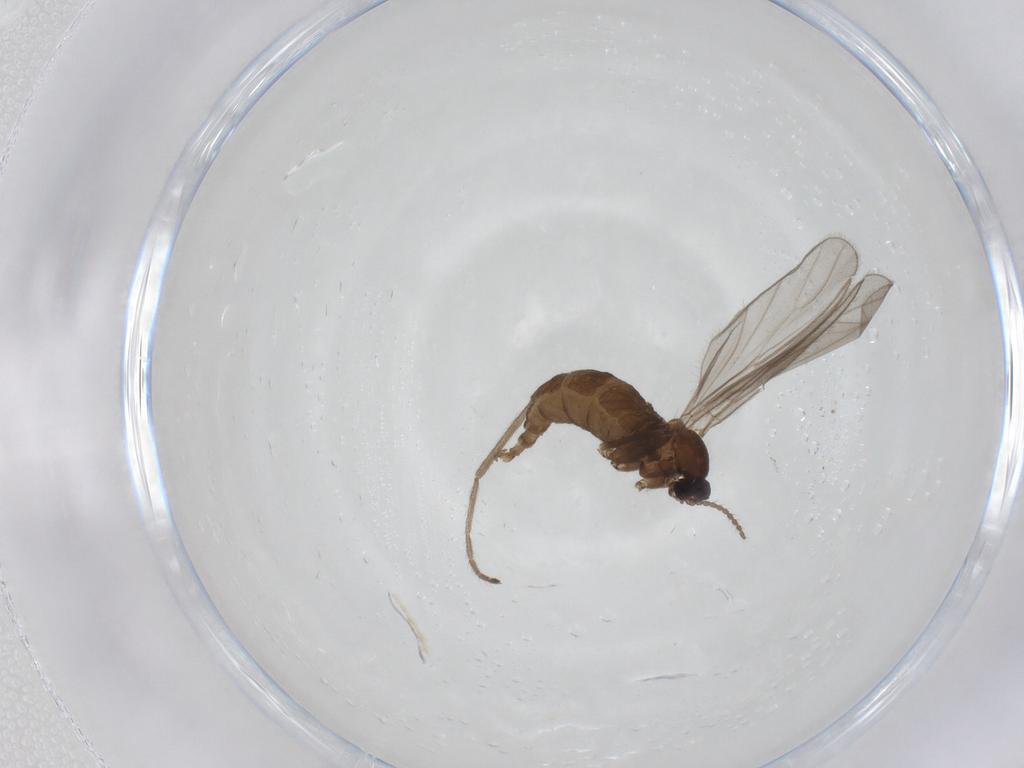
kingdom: Animalia
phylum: Arthropoda
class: Insecta
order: Diptera
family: Cecidomyiidae
